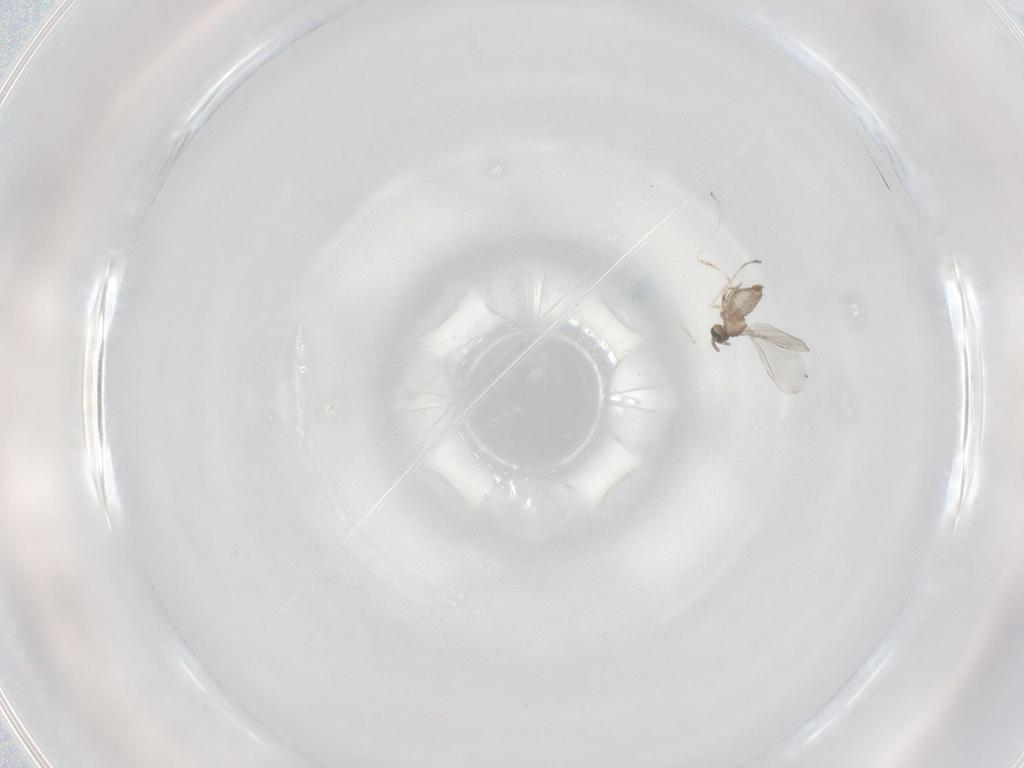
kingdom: Animalia
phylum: Arthropoda
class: Insecta
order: Diptera
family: Cecidomyiidae
